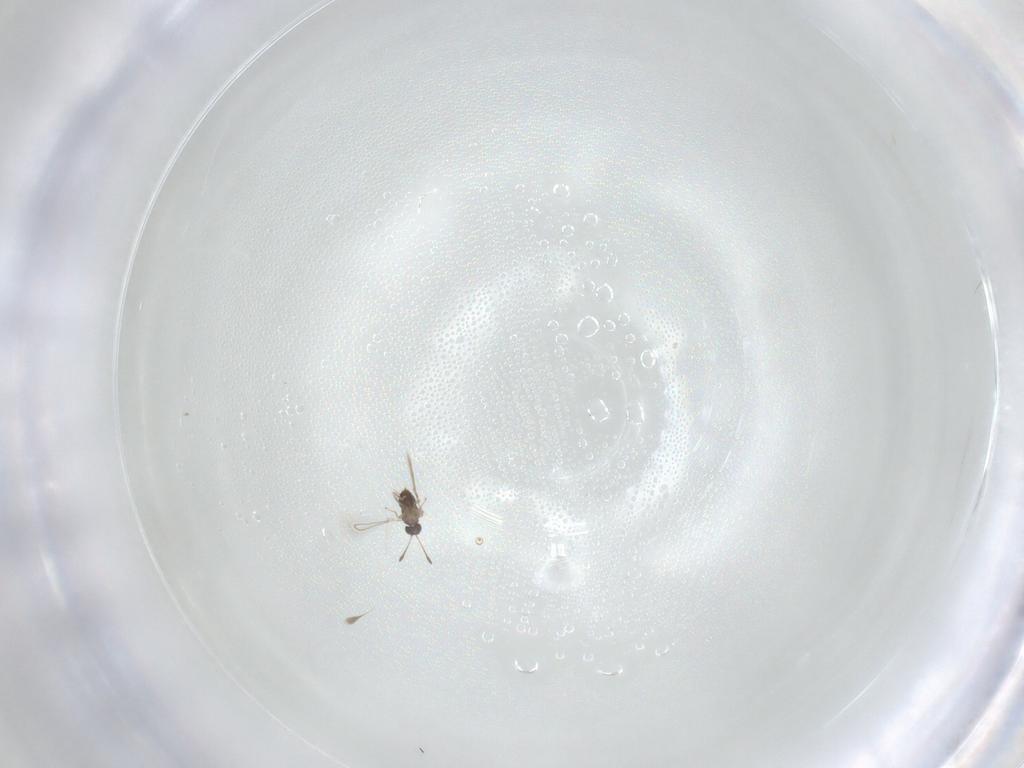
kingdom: Animalia
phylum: Arthropoda
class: Insecta
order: Hymenoptera
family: Mymaridae
